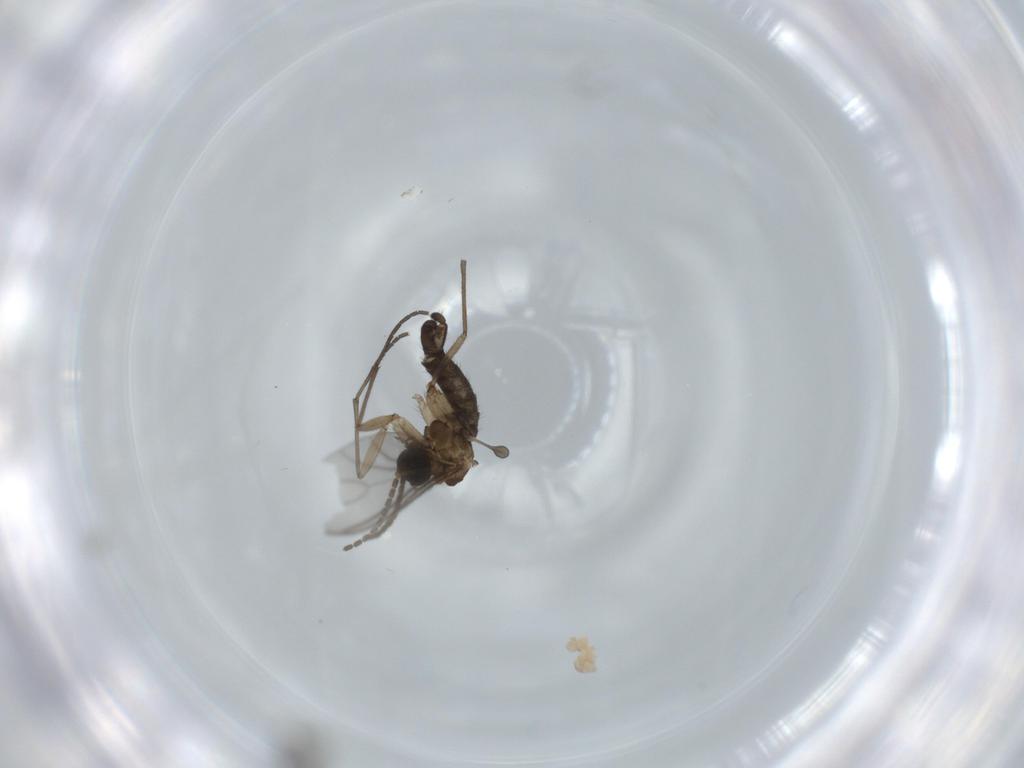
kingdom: Animalia
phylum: Arthropoda
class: Insecta
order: Diptera
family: Sciaridae
